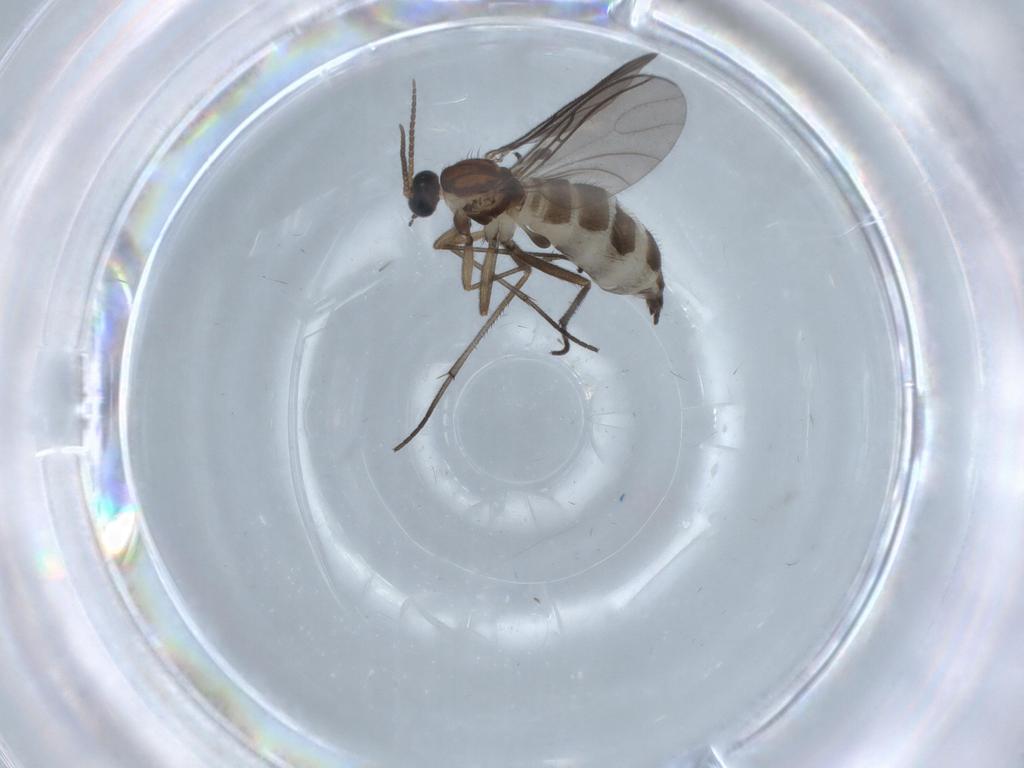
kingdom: Animalia
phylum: Arthropoda
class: Insecta
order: Diptera
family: Sciaridae
